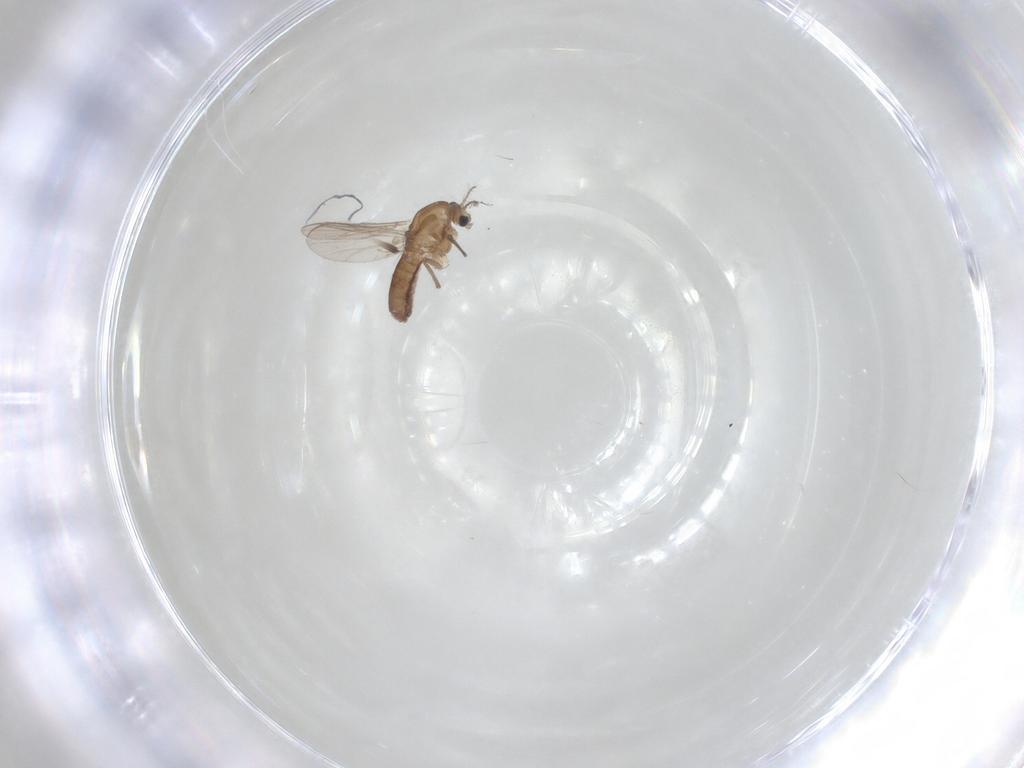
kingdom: Animalia
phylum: Arthropoda
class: Insecta
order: Diptera
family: Chironomidae
